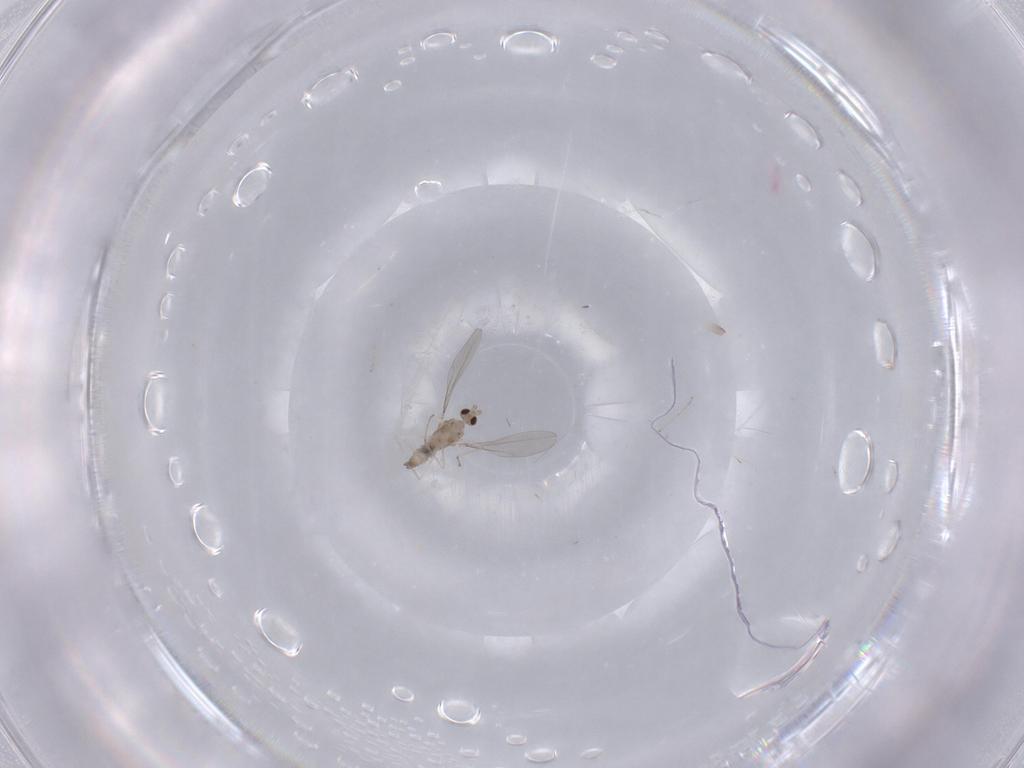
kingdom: Animalia
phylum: Arthropoda
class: Insecta
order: Diptera
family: Cecidomyiidae
